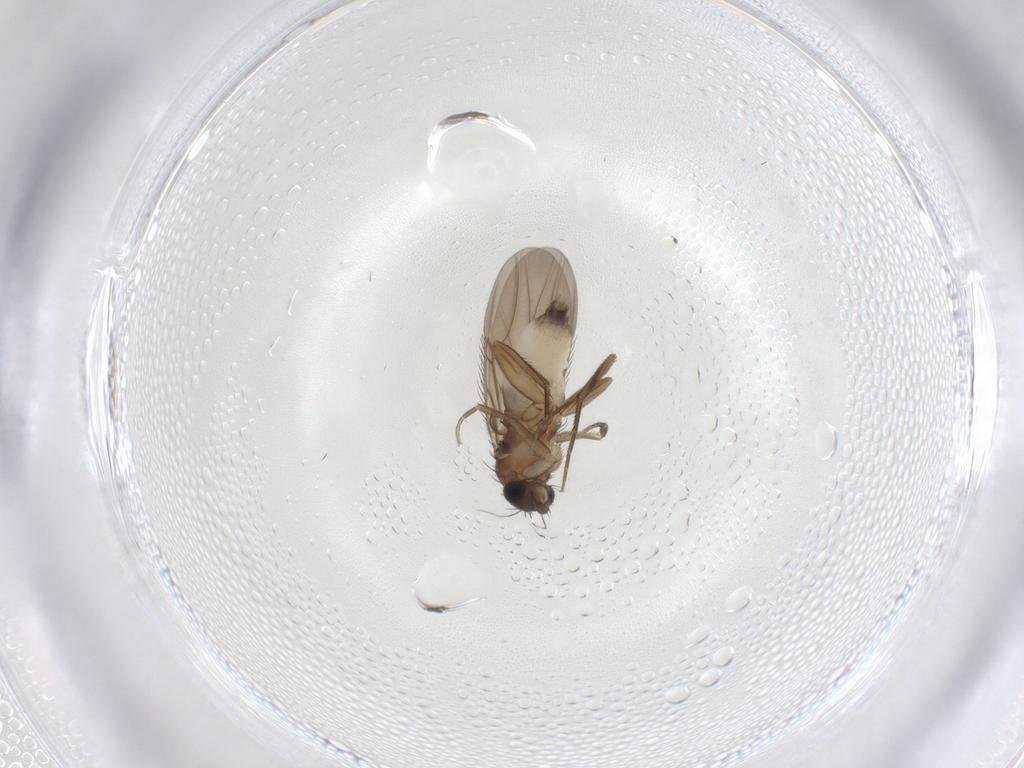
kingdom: Animalia
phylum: Arthropoda
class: Insecta
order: Diptera
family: Phoridae
